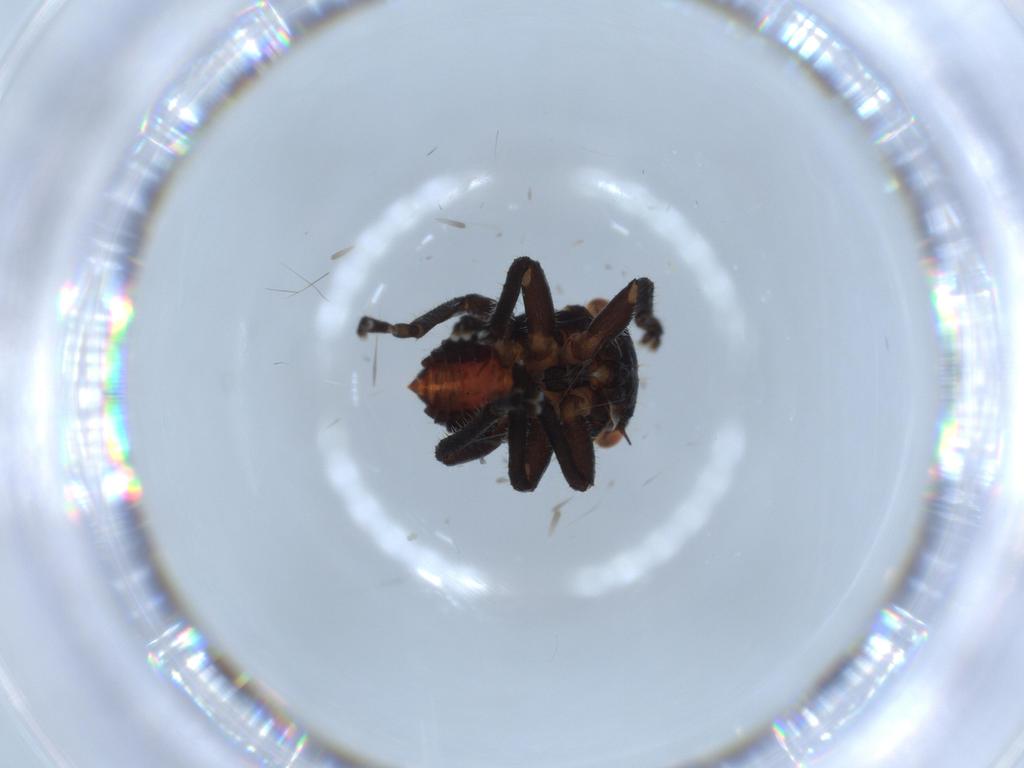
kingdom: Animalia
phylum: Arthropoda
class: Insecta
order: Hemiptera
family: Cicadellidae
